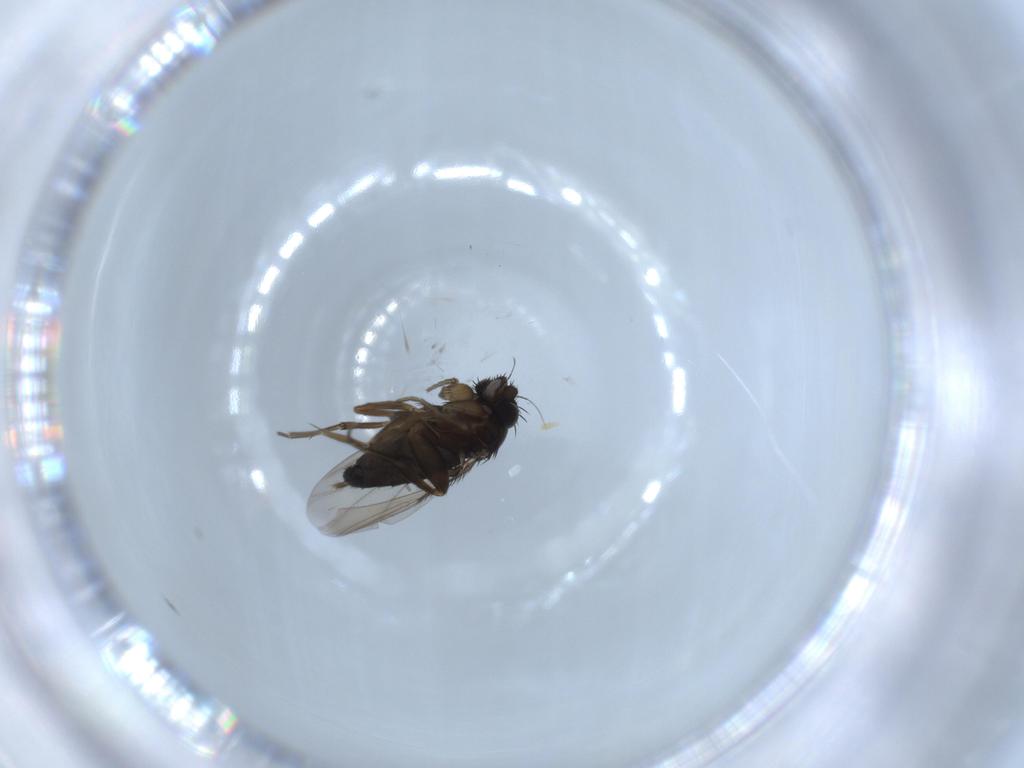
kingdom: Animalia
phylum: Arthropoda
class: Insecta
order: Diptera
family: Phoridae
